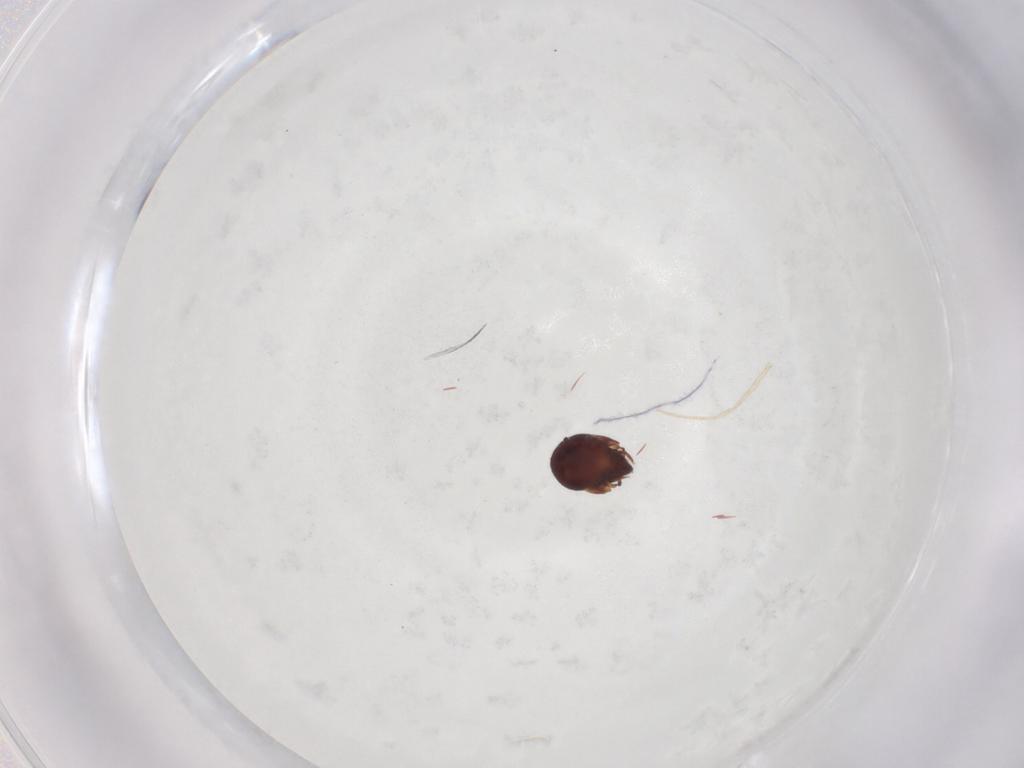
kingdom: Animalia
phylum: Arthropoda
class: Arachnida
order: Sarcoptiformes
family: Humerobatidae
